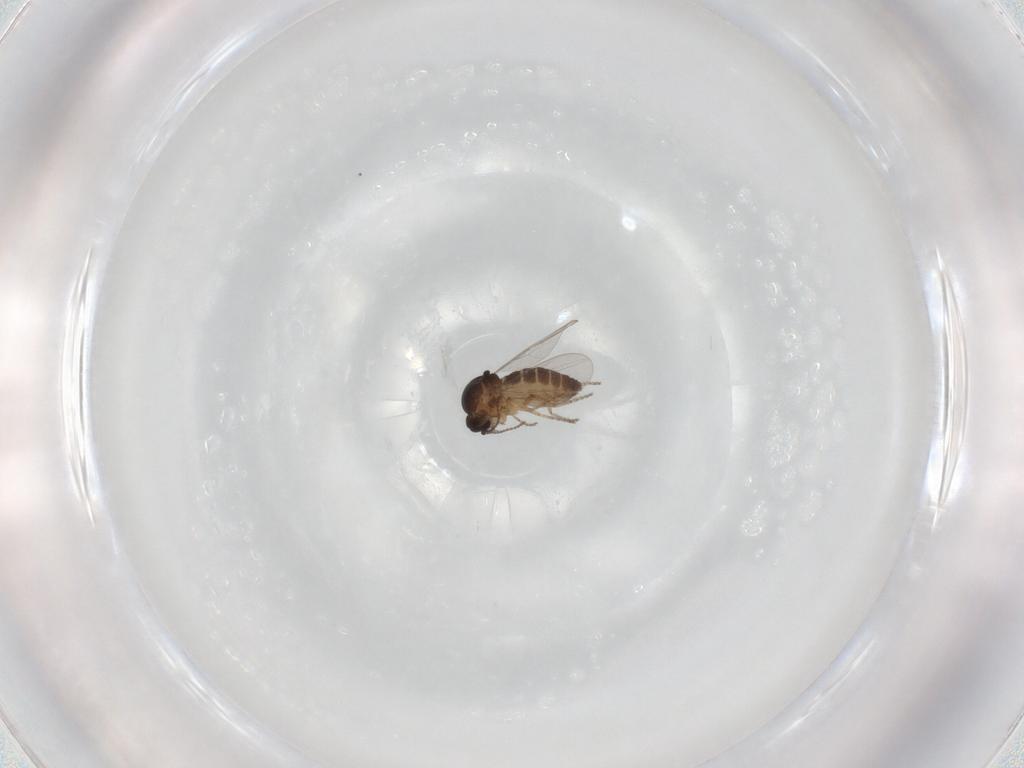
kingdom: Animalia
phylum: Arthropoda
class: Insecta
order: Diptera
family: Ceratopogonidae
